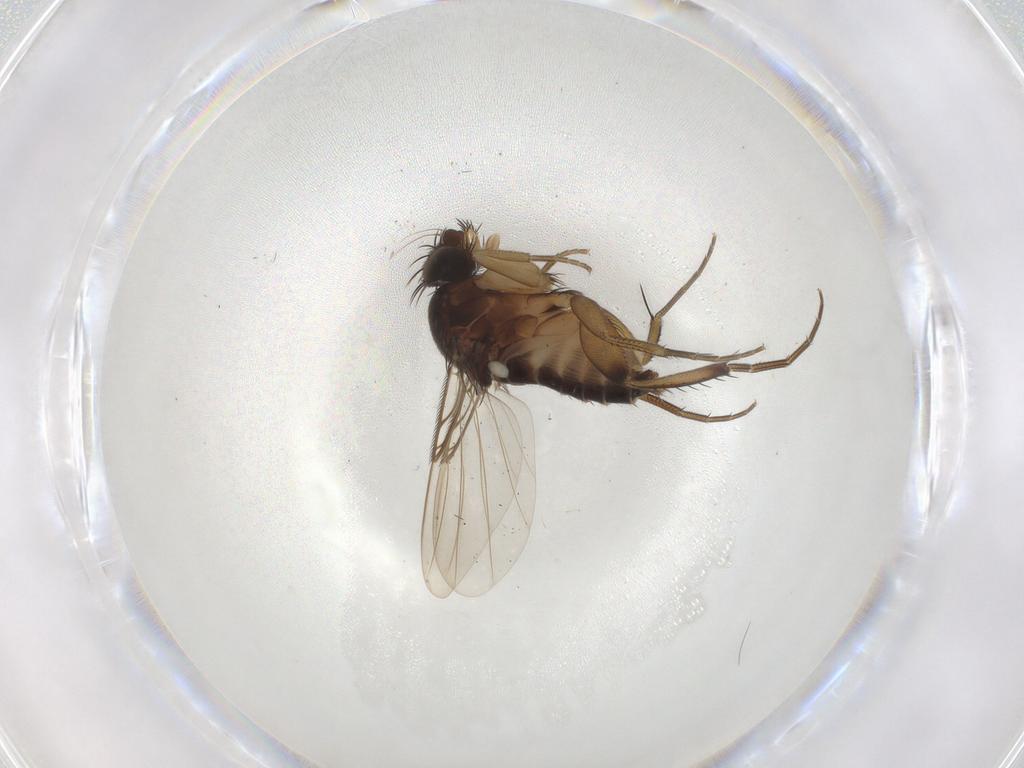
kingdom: Animalia
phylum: Arthropoda
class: Insecta
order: Diptera
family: Phoridae
